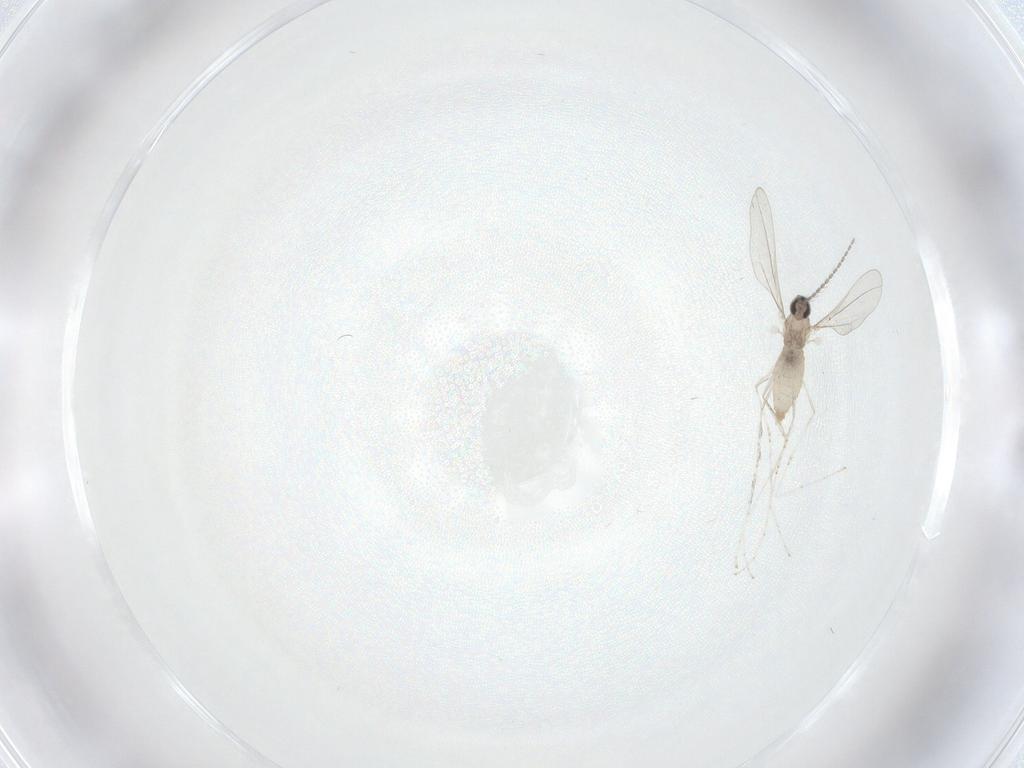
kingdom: Animalia
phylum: Arthropoda
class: Insecta
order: Diptera
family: Cecidomyiidae
